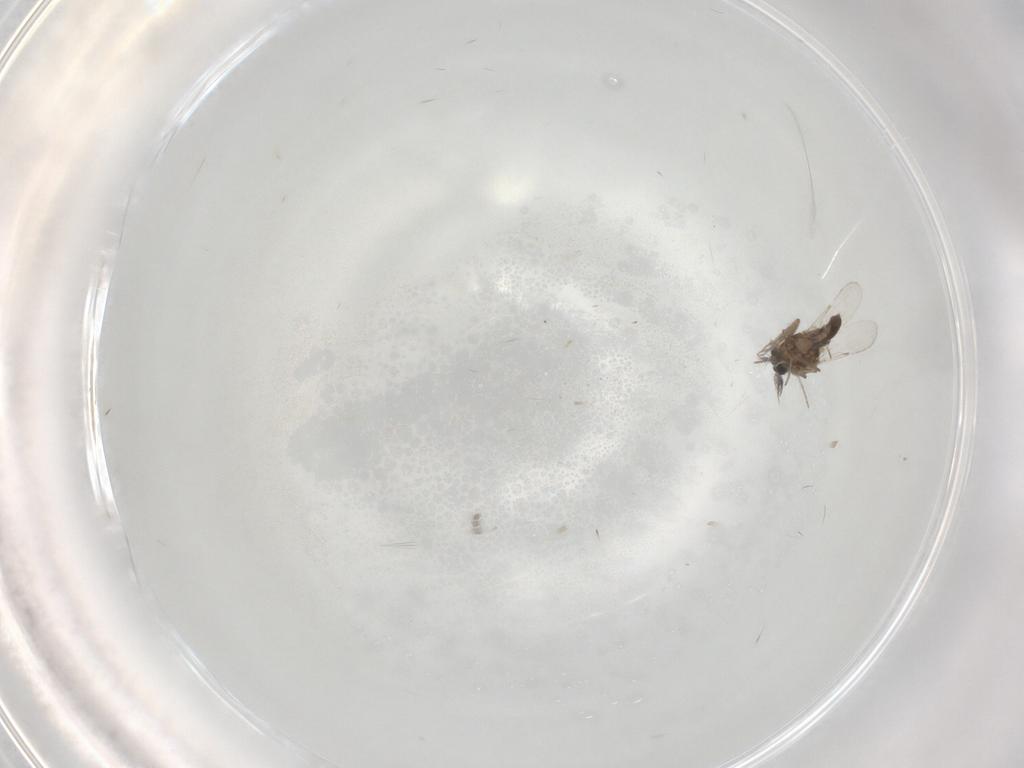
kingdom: Animalia
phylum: Arthropoda
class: Insecta
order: Diptera
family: Ceratopogonidae
